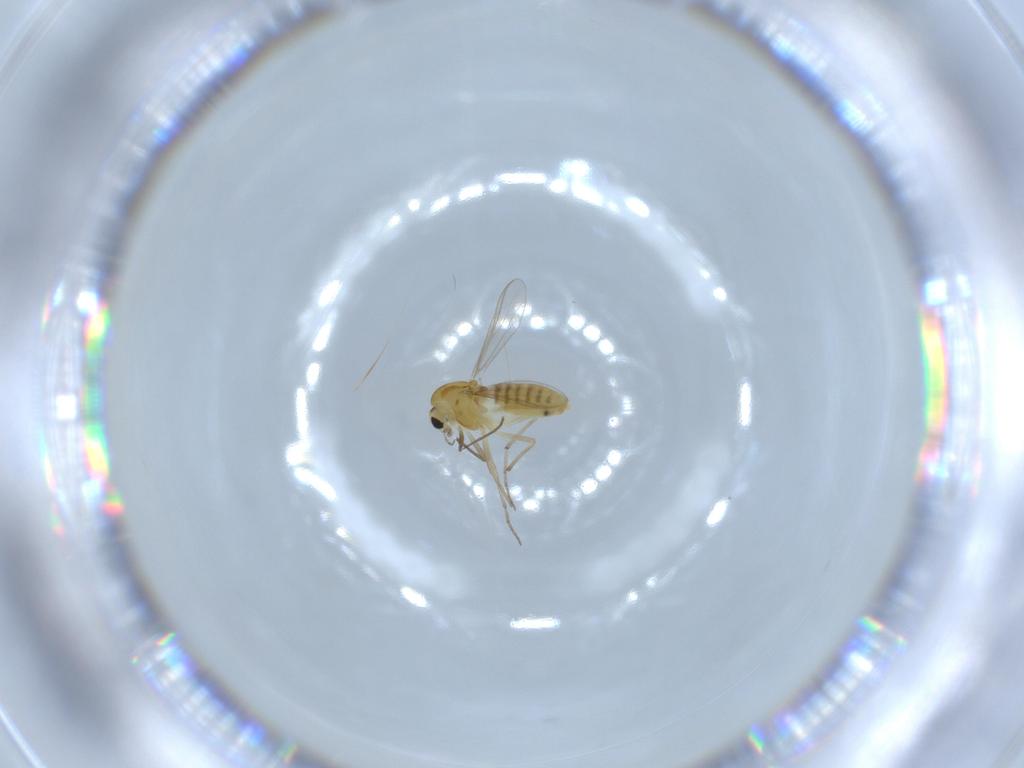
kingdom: Animalia
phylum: Arthropoda
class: Insecta
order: Diptera
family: Chironomidae
